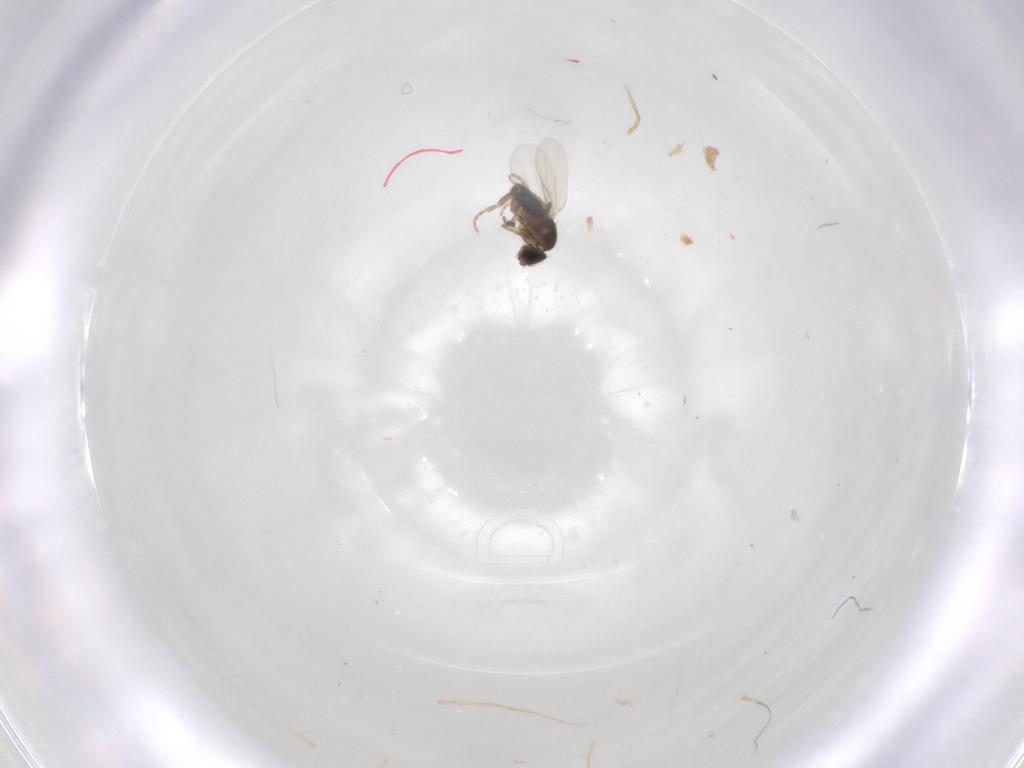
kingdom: Animalia
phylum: Arthropoda
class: Insecta
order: Diptera
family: Phoridae
